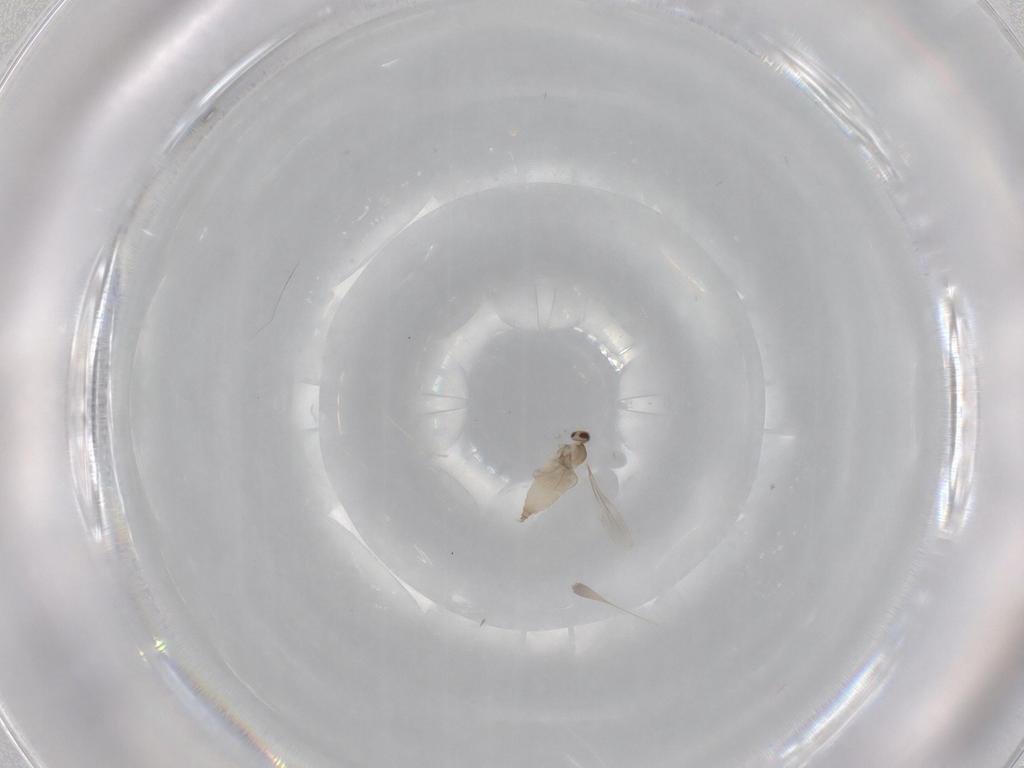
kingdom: Animalia
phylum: Arthropoda
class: Insecta
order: Diptera
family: Cecidomyiidae
